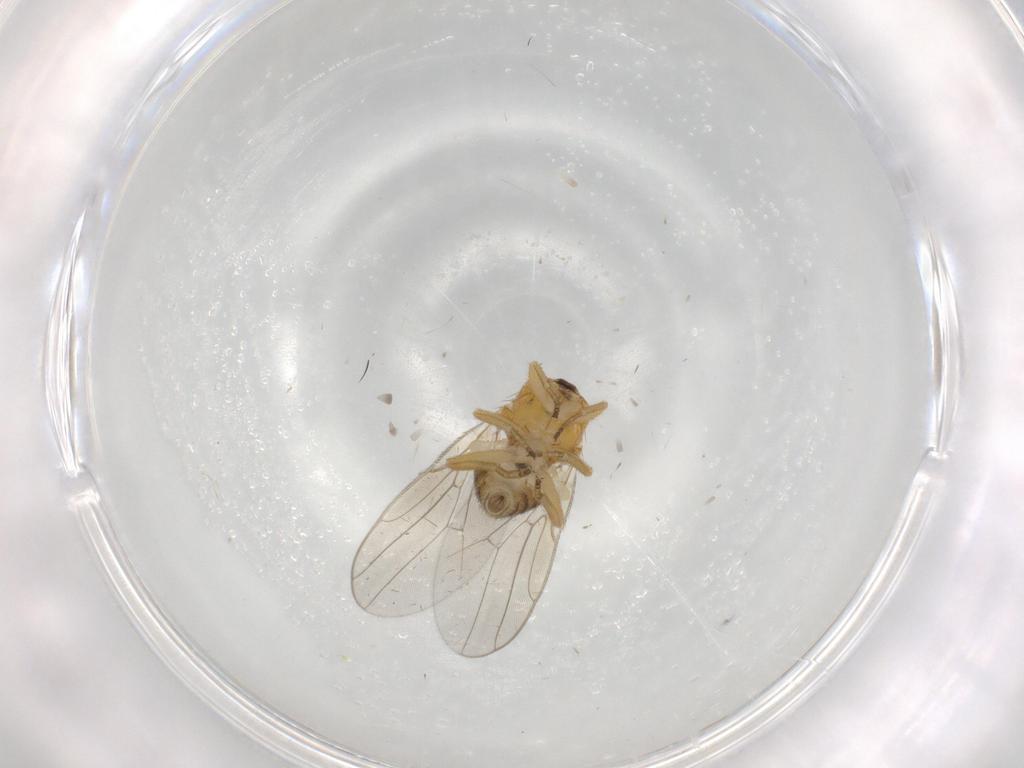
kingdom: Animalia
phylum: Arthropoda
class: Insecta
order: Diptera
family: Chloropidae
